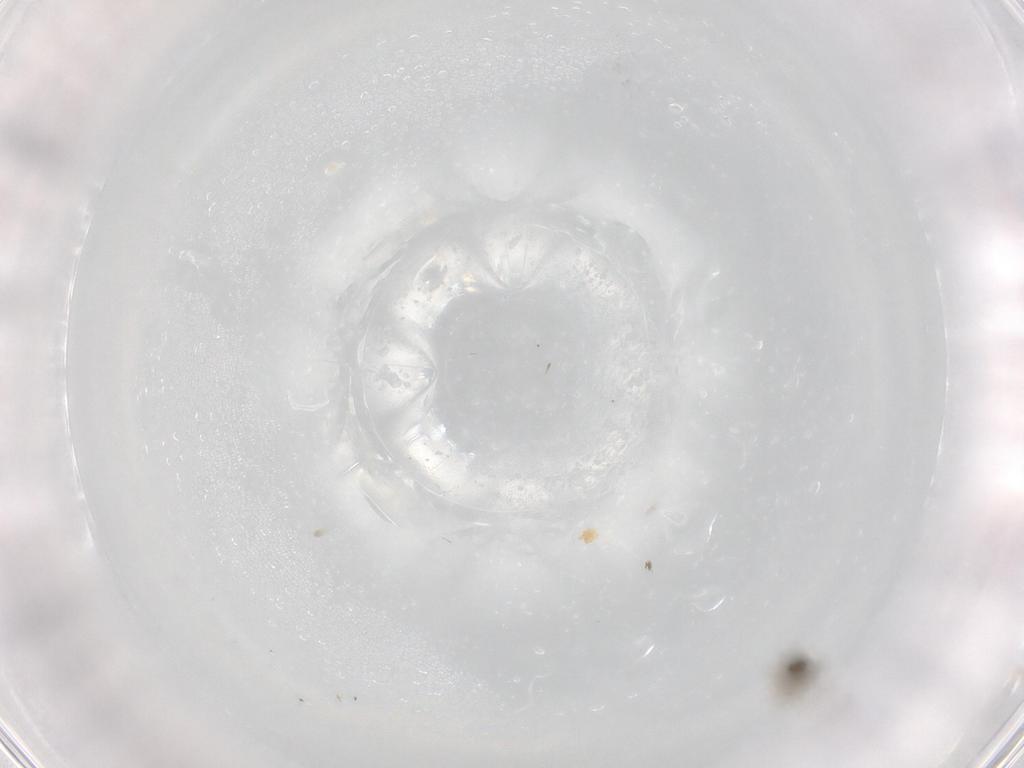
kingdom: Animalia
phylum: Arthropoda
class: Insecta
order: Diptera
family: Cecidomyiidae
